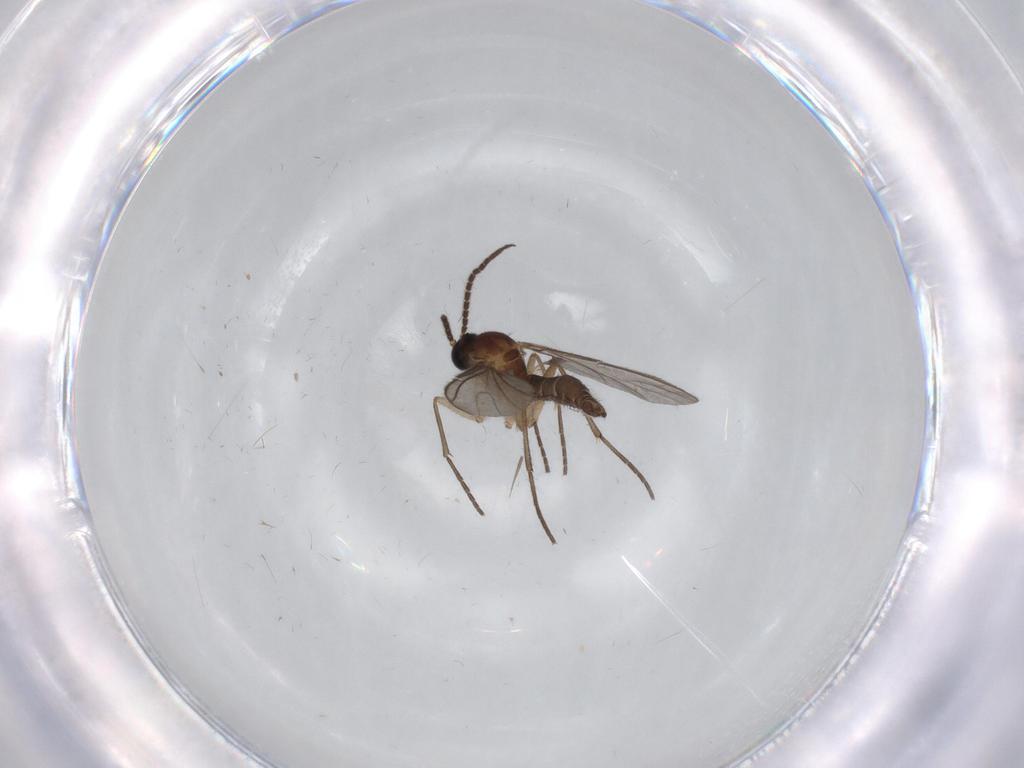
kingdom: Animalia
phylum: Arthropoda
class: Insecta
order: Diptera
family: Sciaridae
